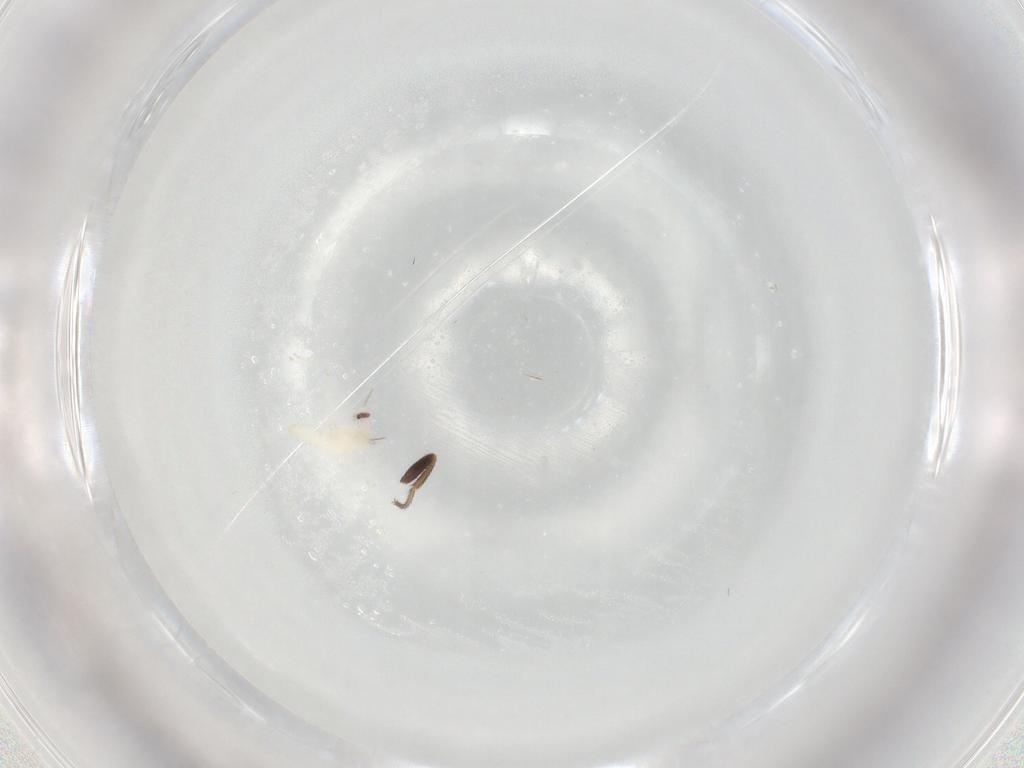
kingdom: Animalia
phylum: Arthropoda
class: Insecta
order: Diptera
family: Cecidomyiidae
